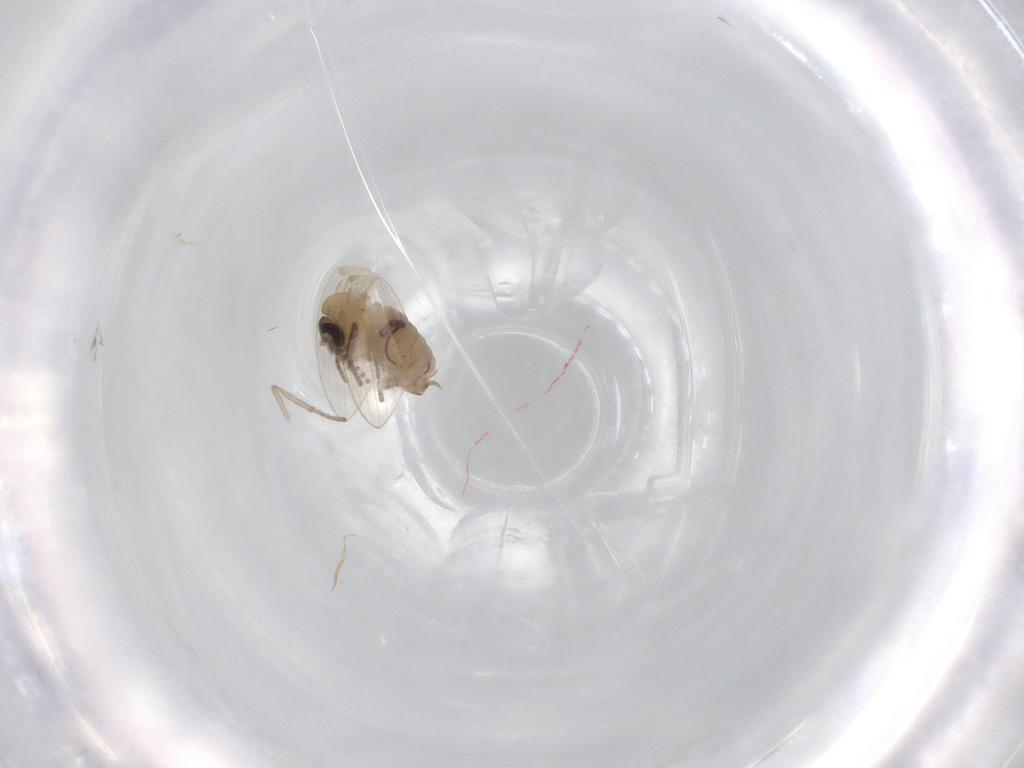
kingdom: Animalia
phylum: Arthropoda
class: Insecta
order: Diptera
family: Psychodidae
